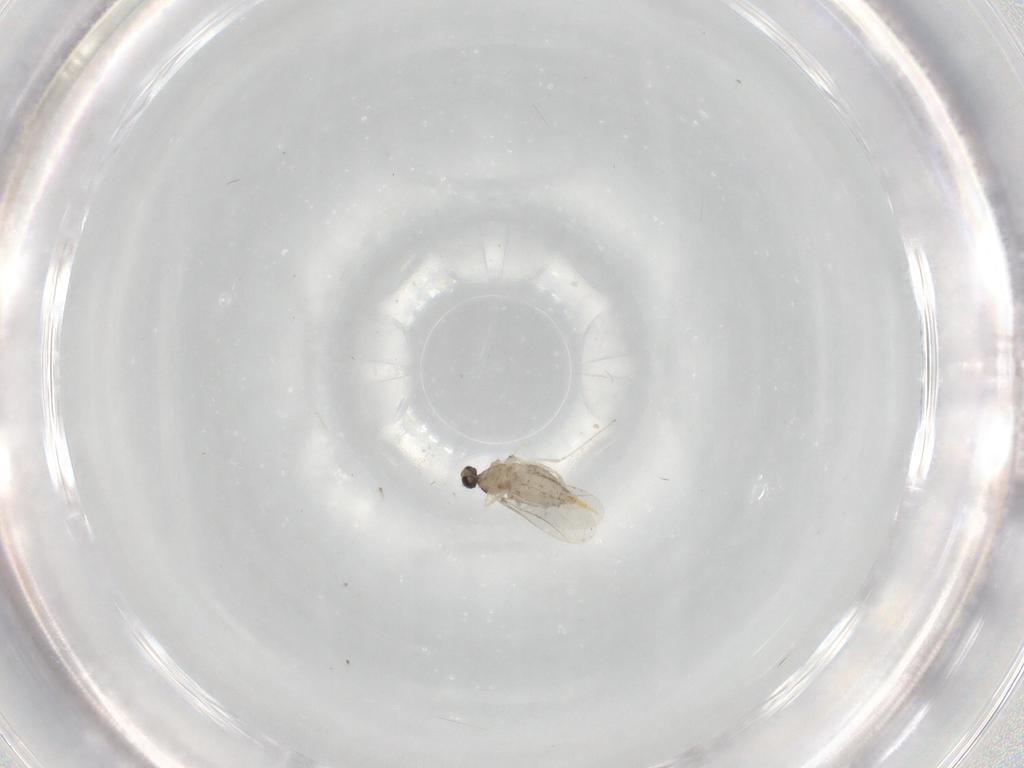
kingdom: Animalia
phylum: Arthropoda
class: Insecta
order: Diptera
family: Cecidomyiidae
